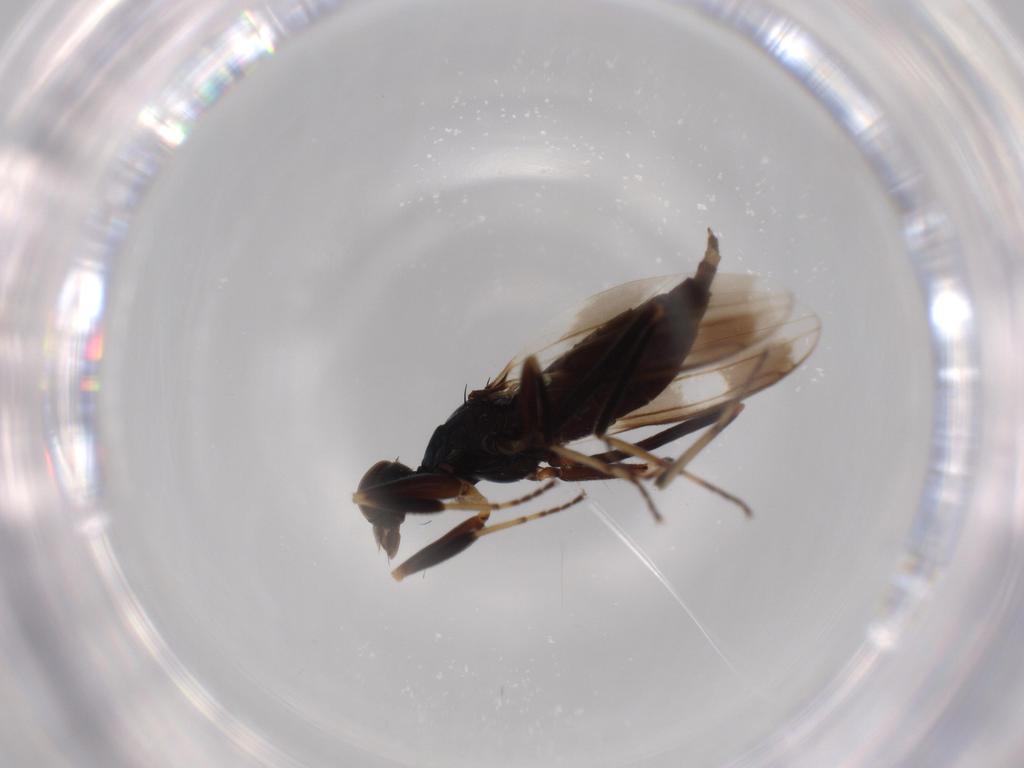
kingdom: Animalia
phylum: Arthropoda
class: Insecta
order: Diptera
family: Hybotidae
